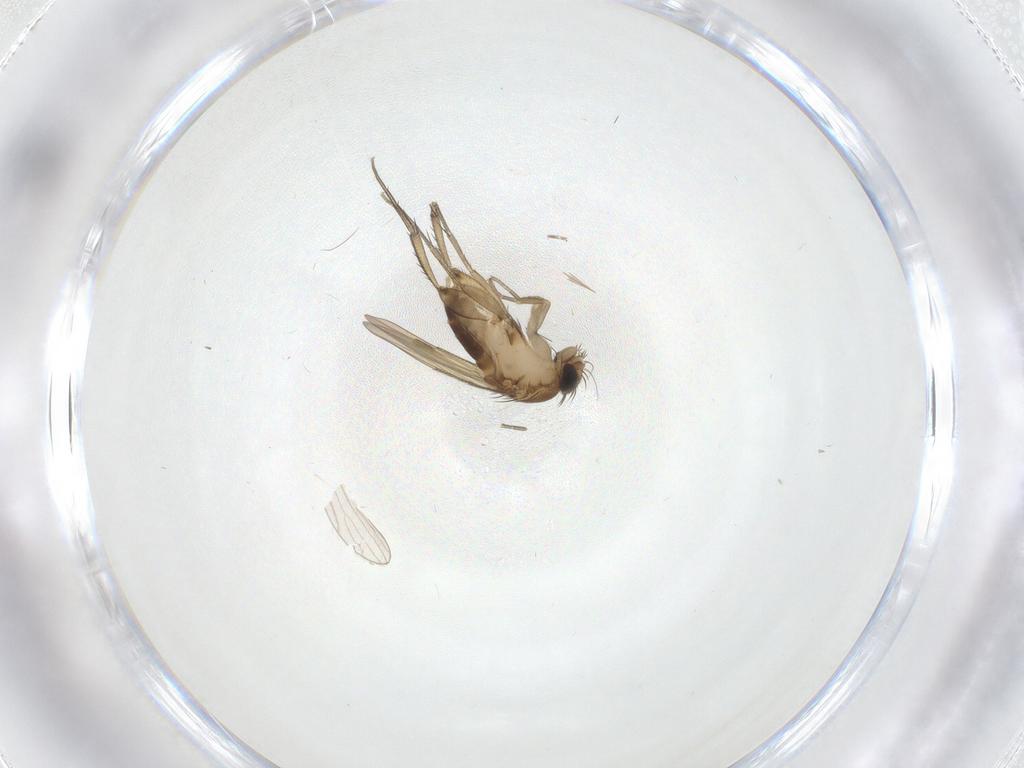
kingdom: Animalia
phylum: Arthropoda
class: Insecta
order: Diptera
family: Phoridae
